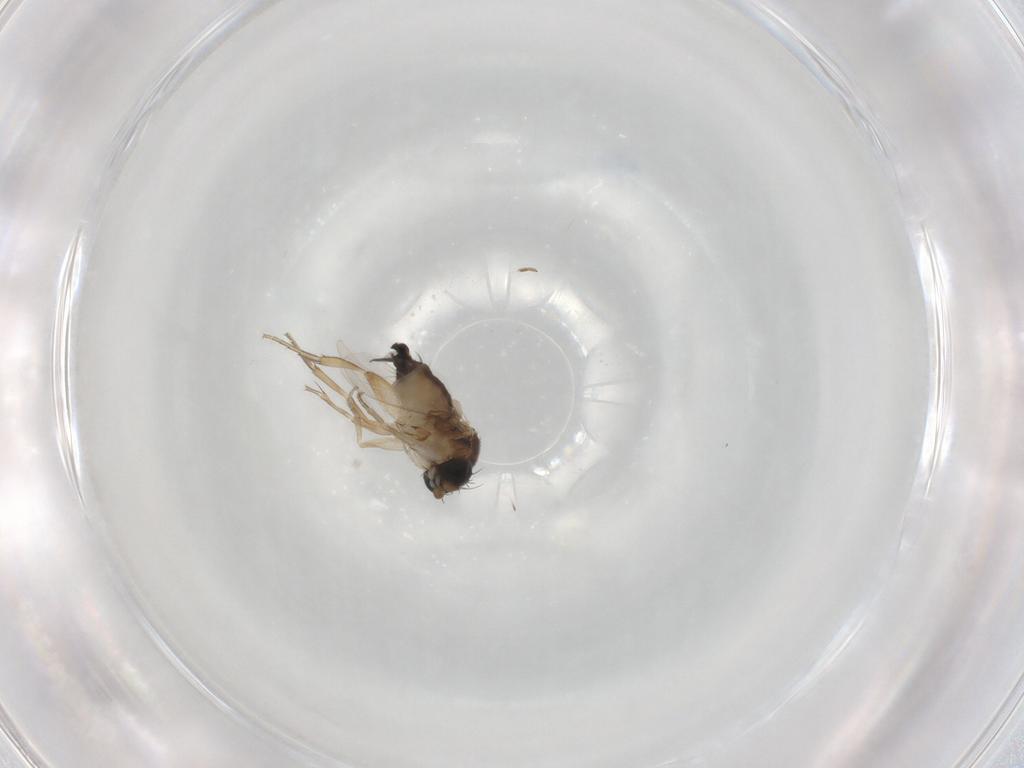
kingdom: Animalia
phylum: Arthropoda
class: Insecta
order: Diptera
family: Phoridae
